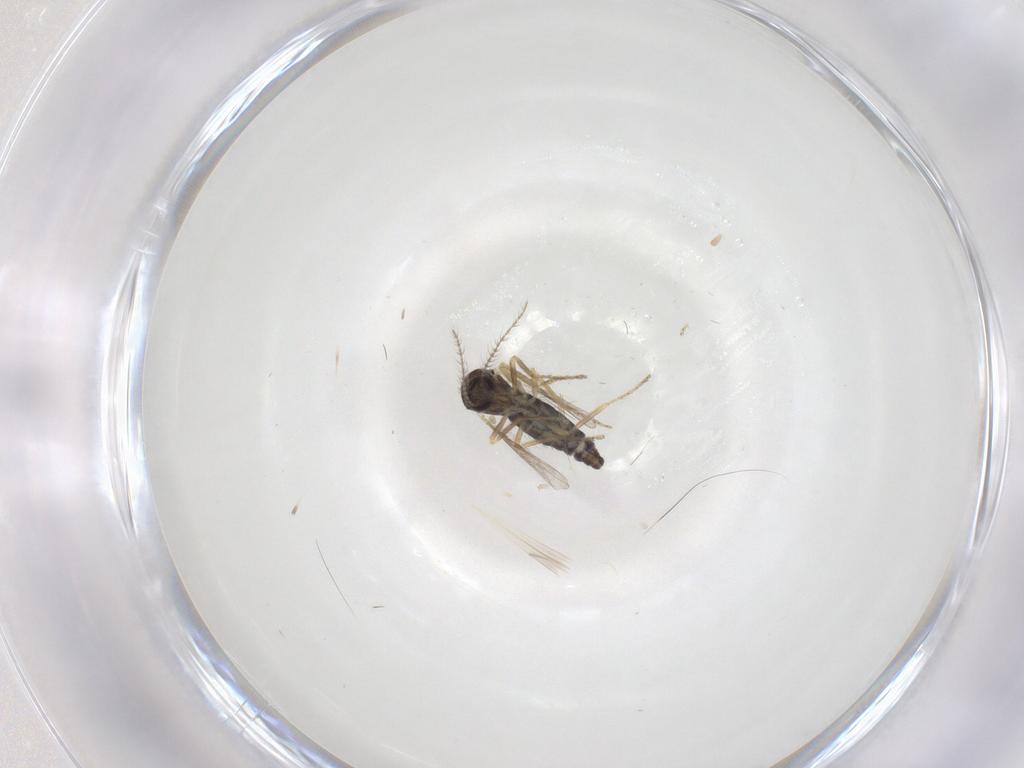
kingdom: Animalia
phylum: Arthropoda
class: Insecta
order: Diptera
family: Ceratopogonidae
